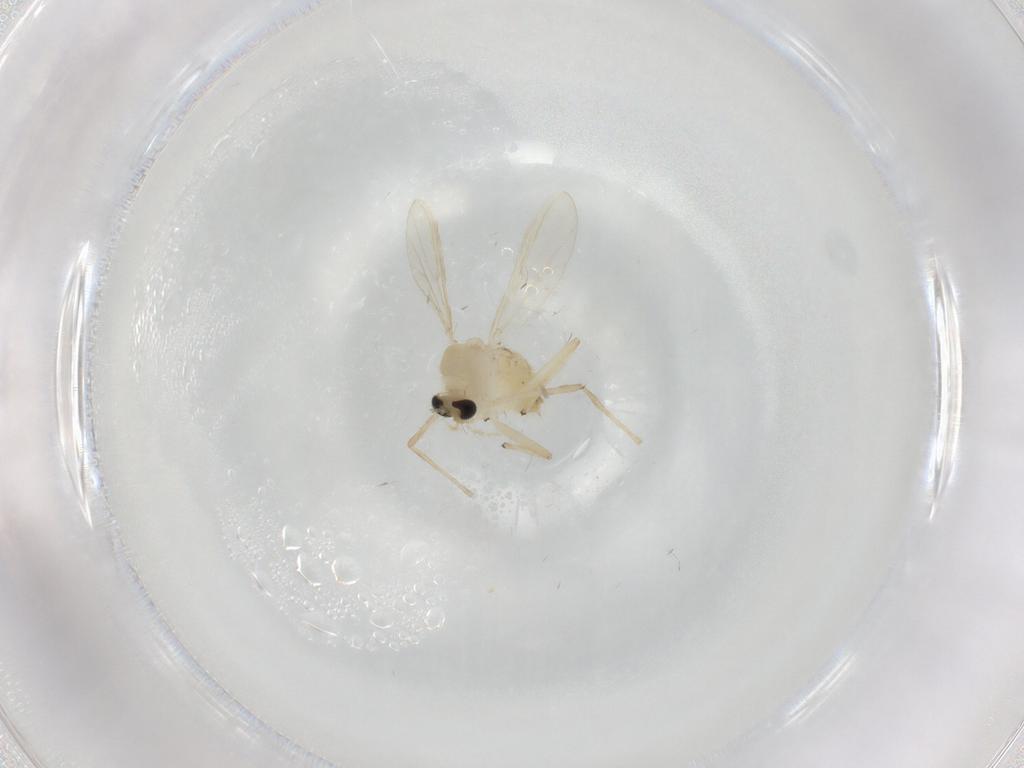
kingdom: Animalia
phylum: Arthropoda
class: Insecta
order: Diptera
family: Chironomidae
